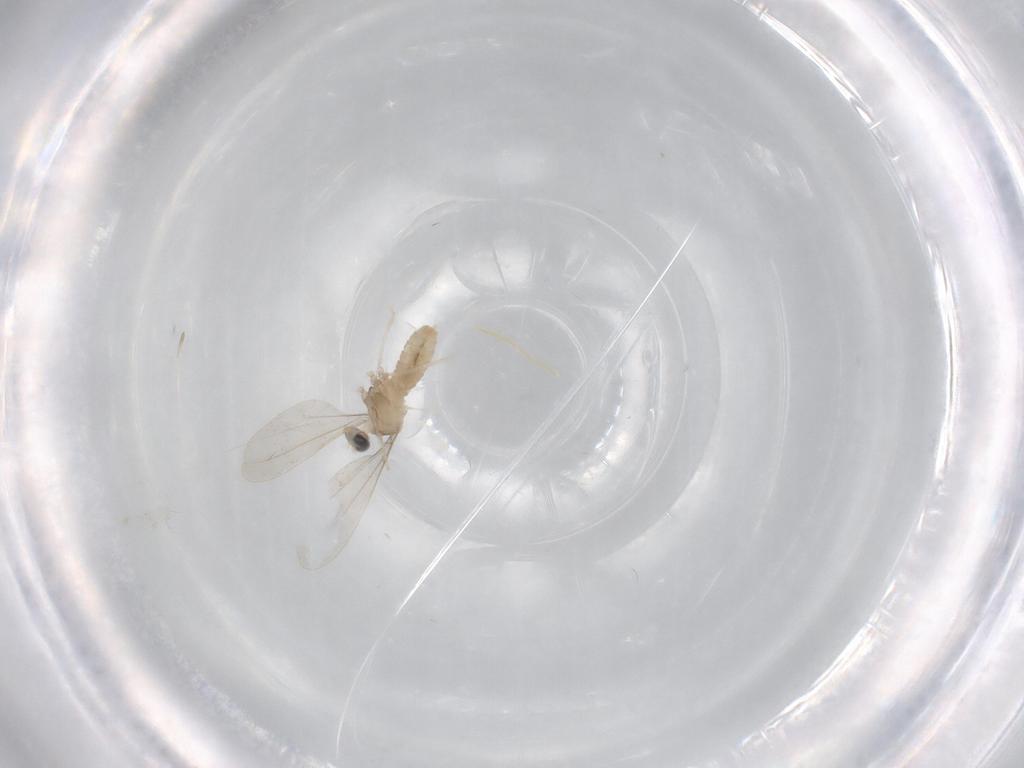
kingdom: Animalia
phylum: Arthropoda
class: Insecta
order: Diptera
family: Cecidomyiidae
